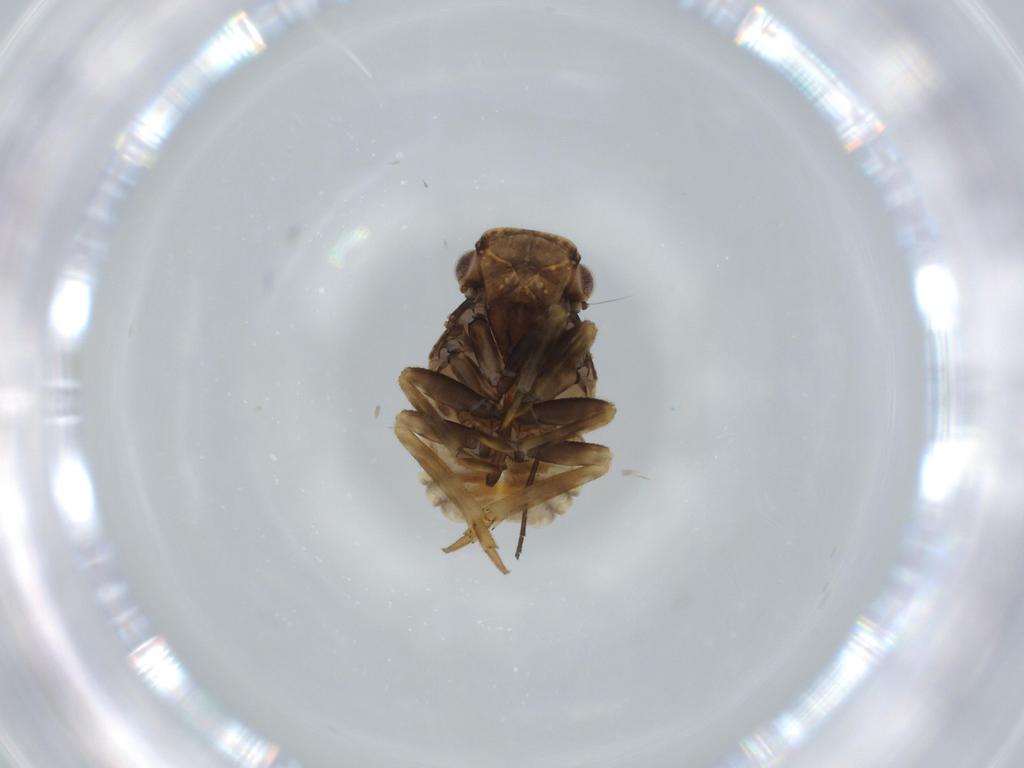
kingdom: Animalia
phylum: Arthropoda
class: Insecta
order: Hemiptera
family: Fulgoroidea_incertae_sedis
